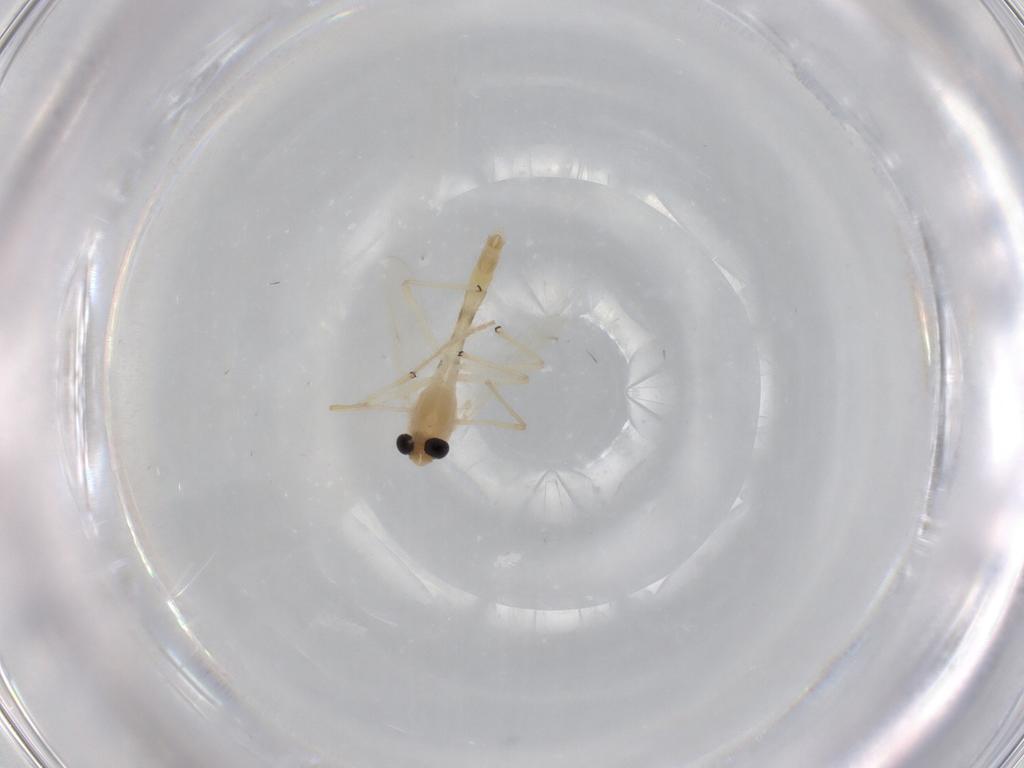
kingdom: Animalia
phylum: Arthropoda
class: Insecta
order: Diptera
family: Chironomidae
